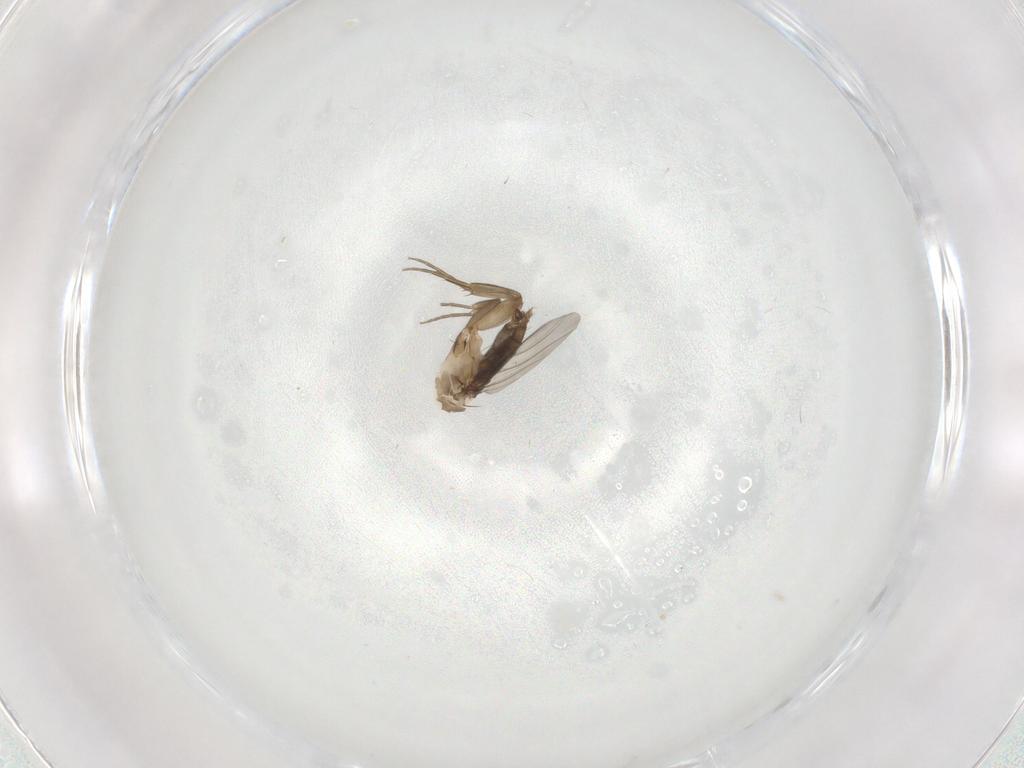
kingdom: Animalia
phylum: Arthropoda
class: Insecta
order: Diptera
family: Phoridae
